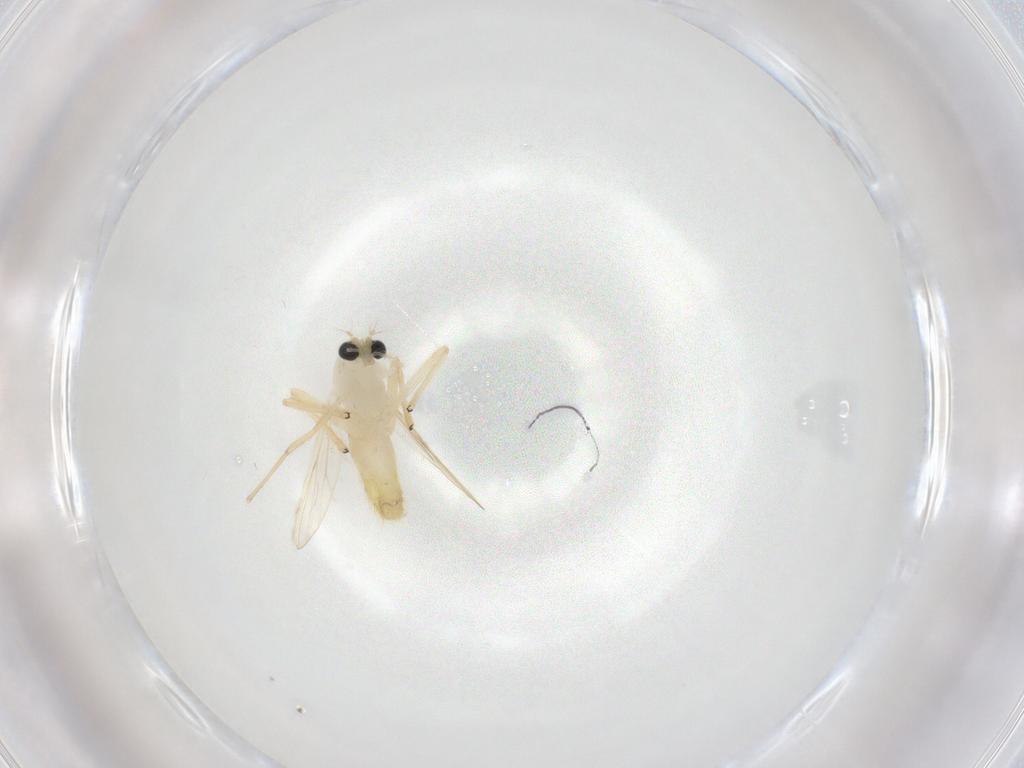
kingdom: Animalia
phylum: Arthropoda
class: Insecta
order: Diptera
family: Chironomidae
